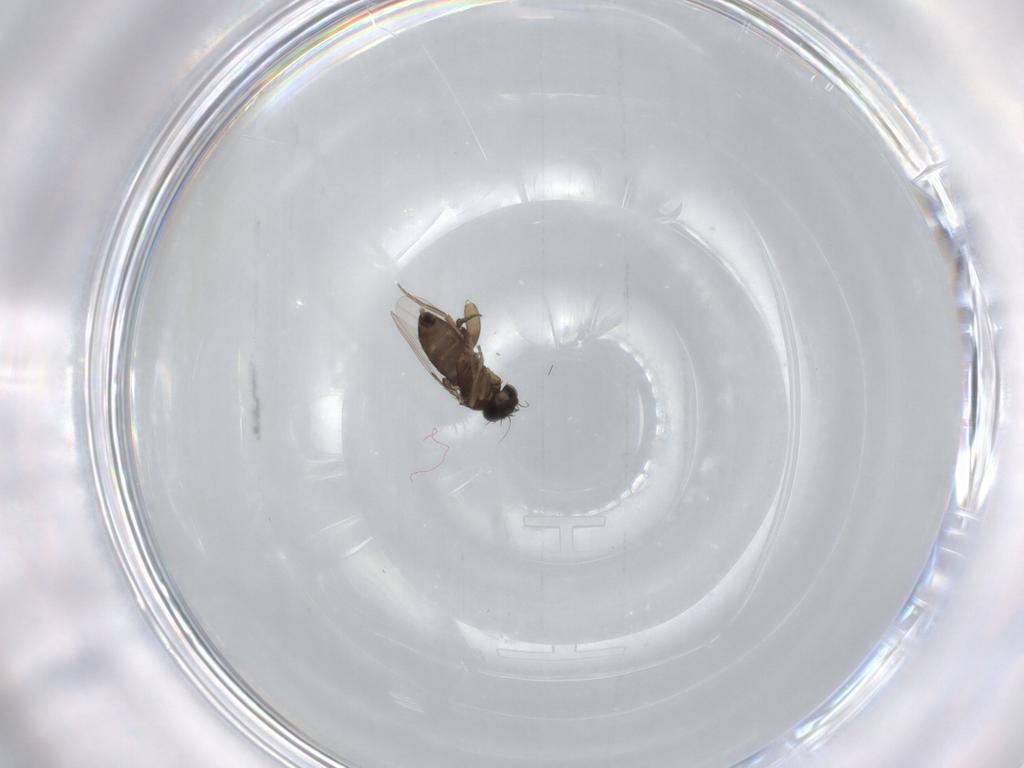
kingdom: Animalia
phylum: Arthropoda
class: Insecta
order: Diptera
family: Phoridae
